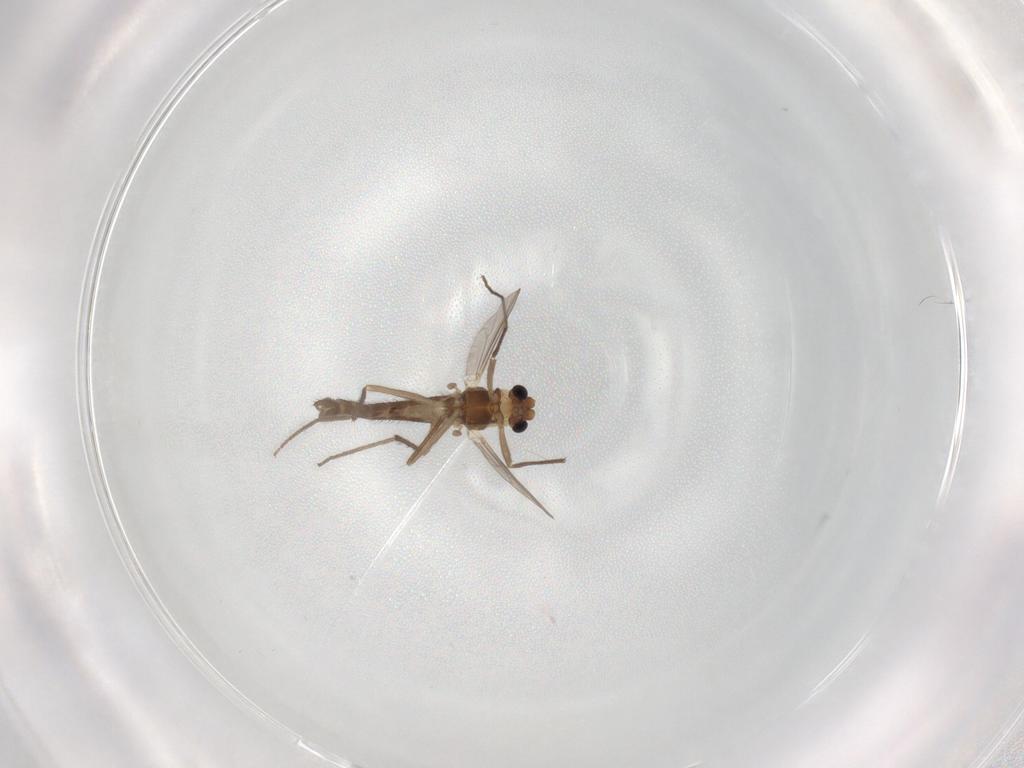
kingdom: Animalia
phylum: Arthropoda
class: Insecta
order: Diptera
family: Chironomidae
